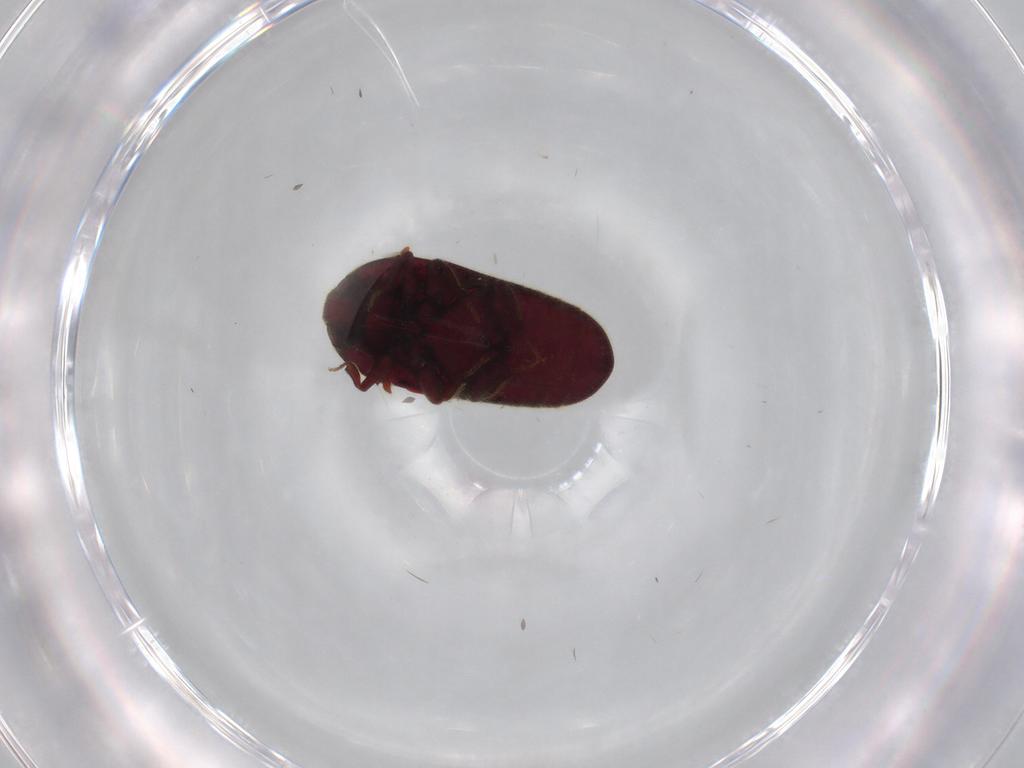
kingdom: Animalia
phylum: Arthropoda
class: Insecta
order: Coleoptera
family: Throscidae
